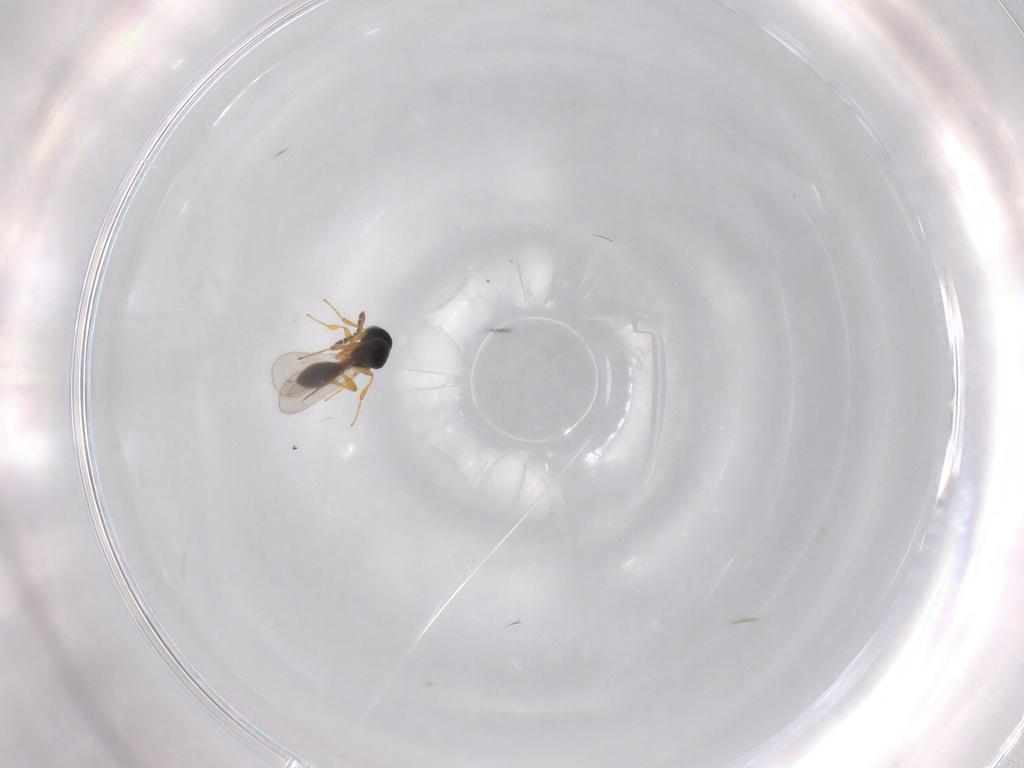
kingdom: Animalia
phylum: Arthropoda
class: Insecta
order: Hymenoptera
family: Platygastridae
